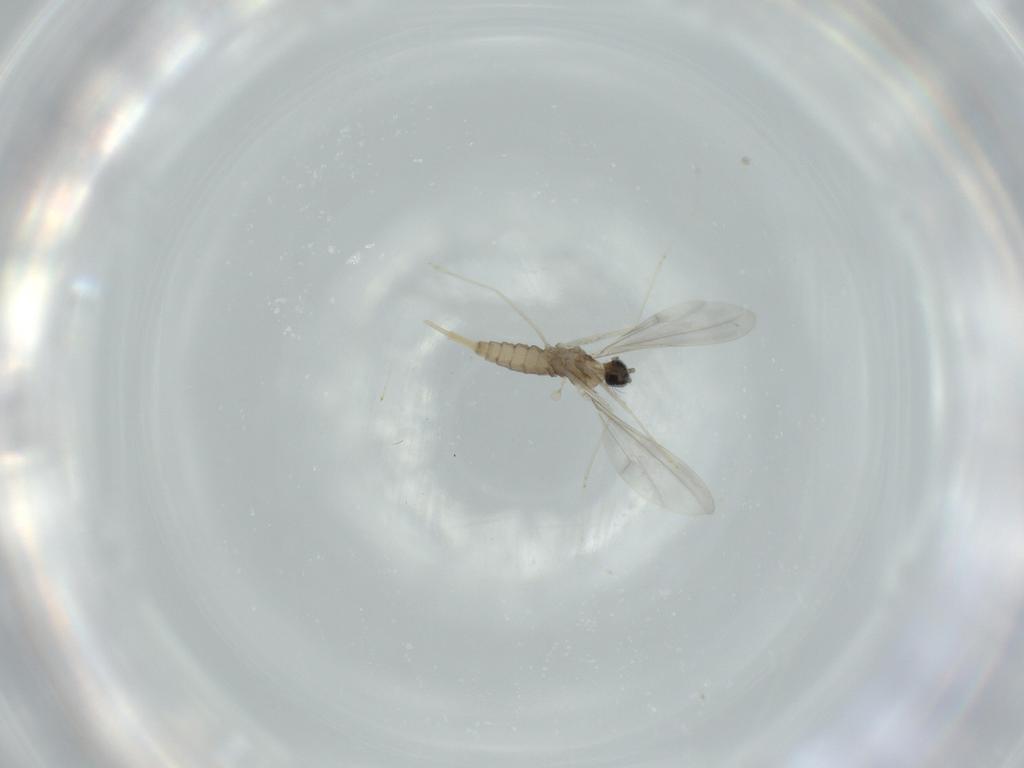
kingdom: Animalia
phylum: Arthropoda
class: Insecta
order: Diptera
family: Cecidomyiidae
